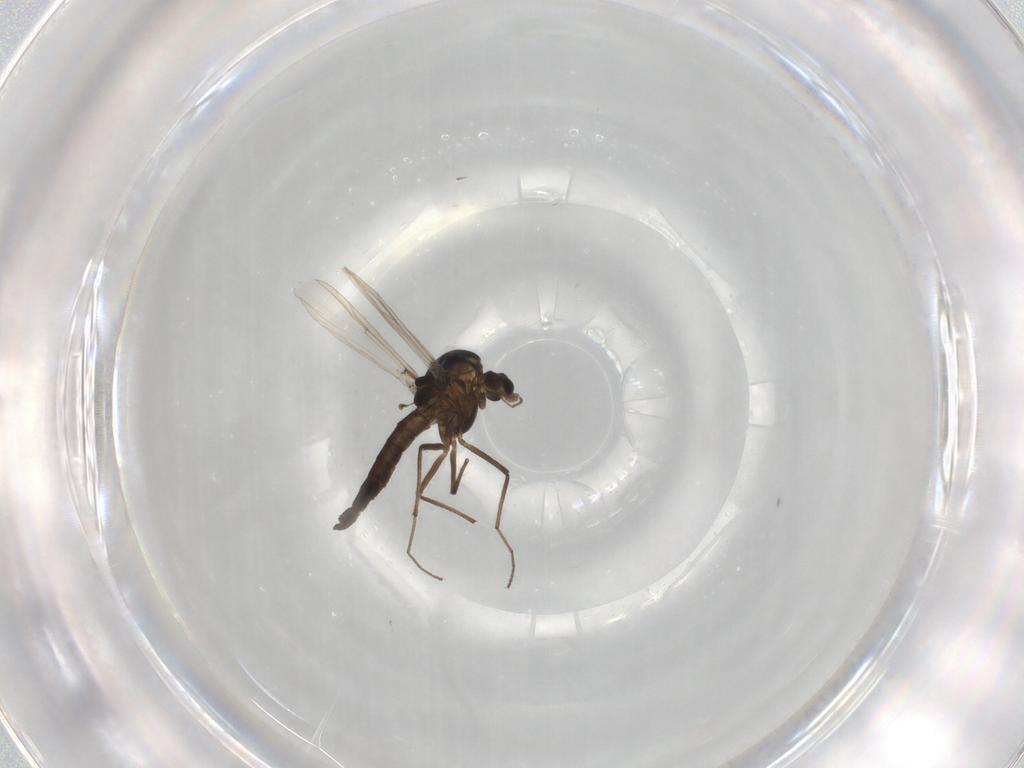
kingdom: Animalia
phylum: Arthropoda
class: Insecta
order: Diptera
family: Chironomidae
